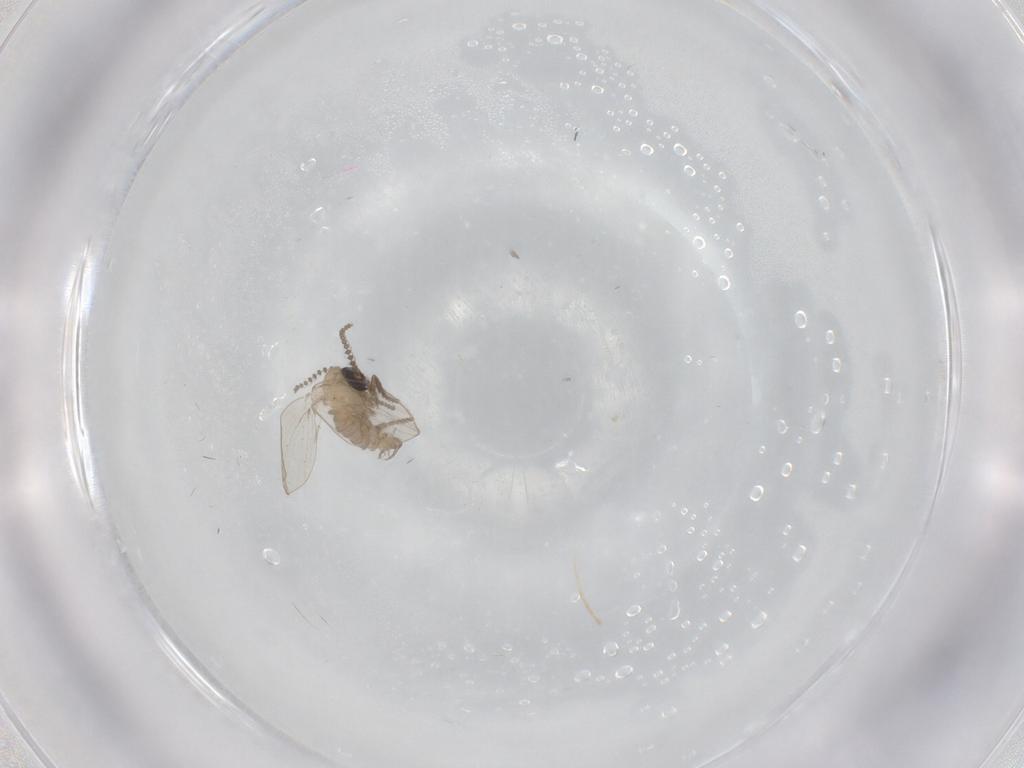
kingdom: Animalia
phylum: Arthropoda
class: Insecta
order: Diptera
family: Psychodidae
